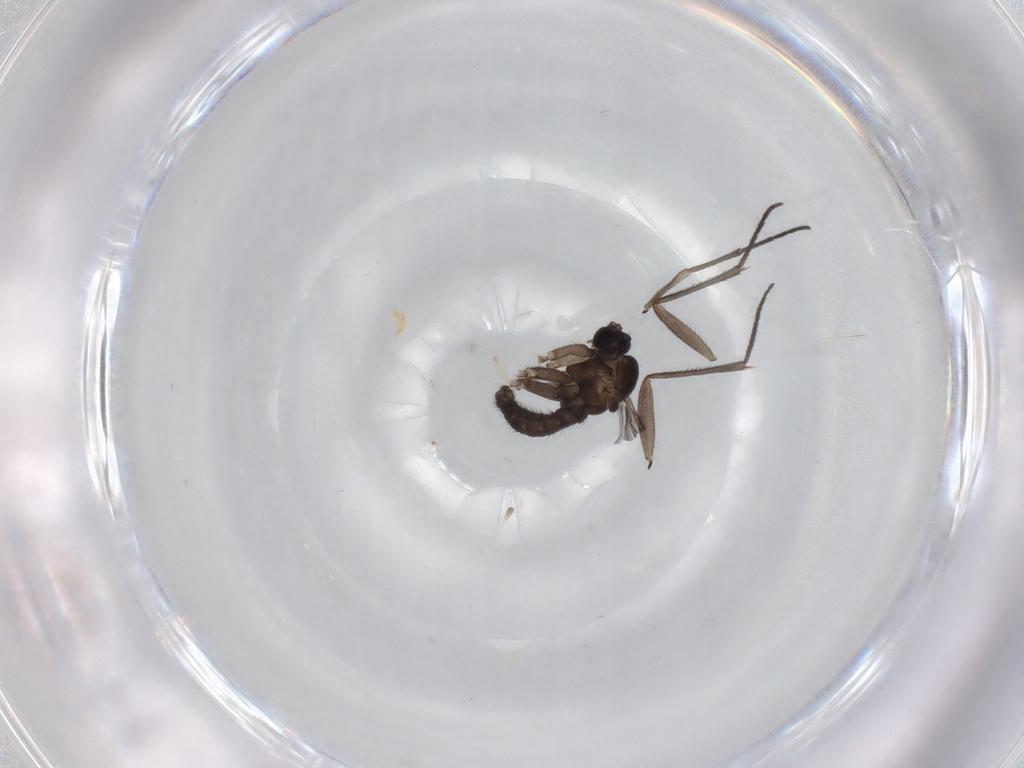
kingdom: Animalia
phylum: Arthropoda
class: Insecta
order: Diptera
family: Sciaridae
